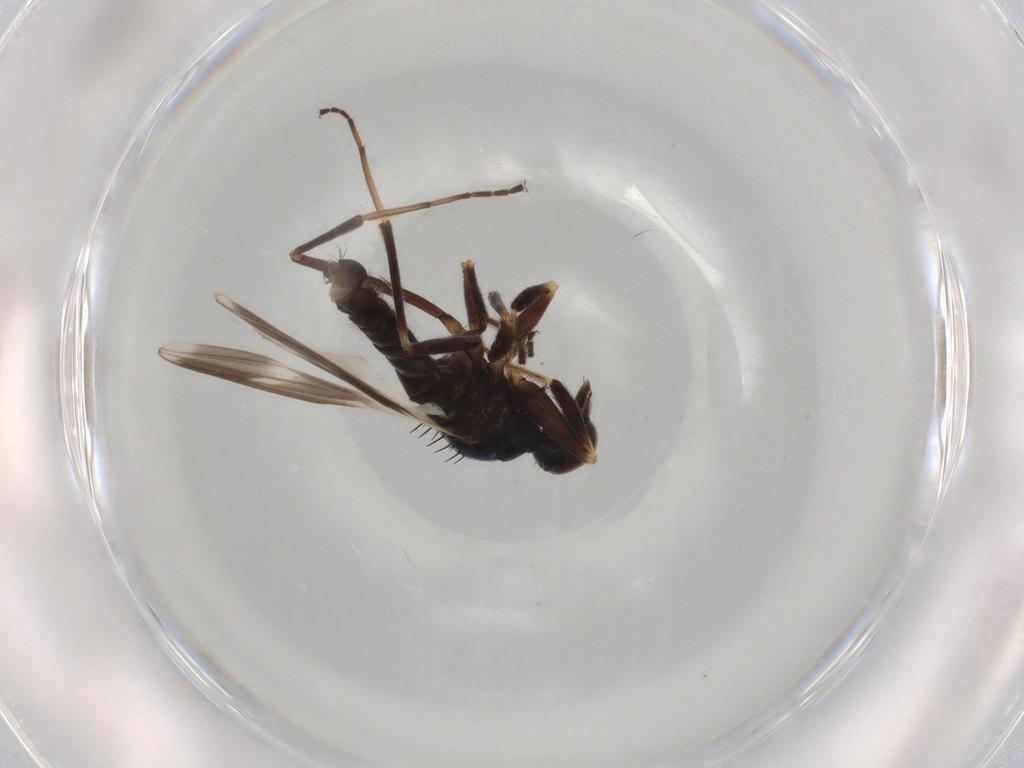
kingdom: Animalia
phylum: Arthropoda
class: Insecta
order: Diptera
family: Hybotidae
